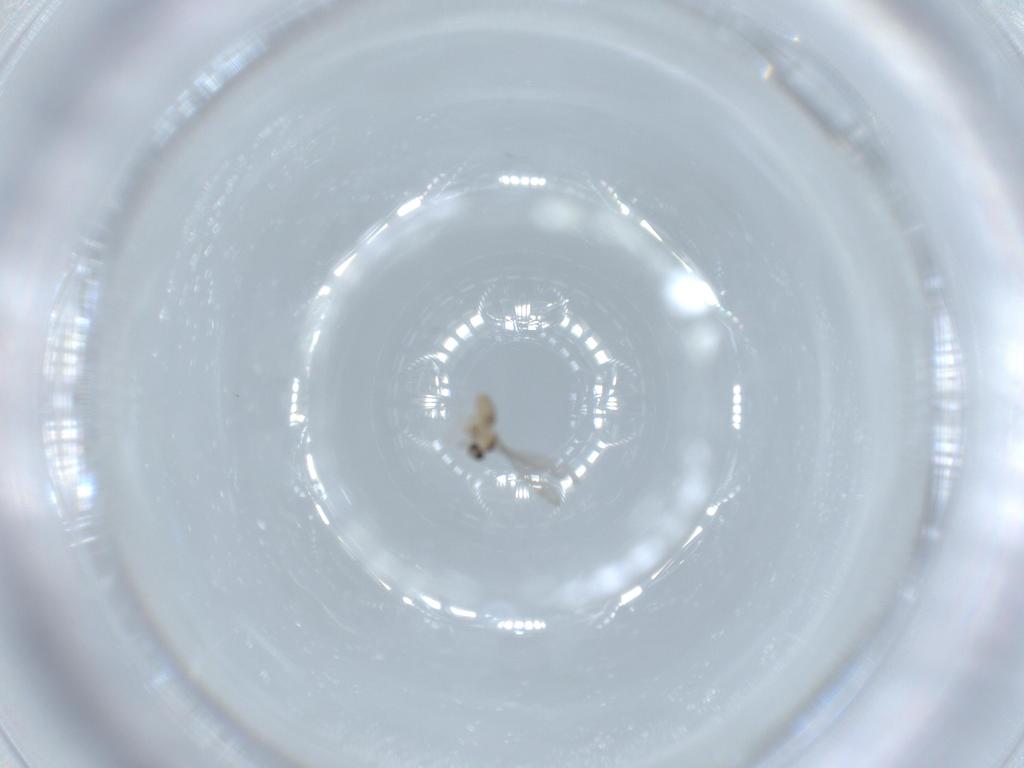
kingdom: Animalia
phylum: Arthropoda
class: Insecta
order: Diptera
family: Cecidomyiidae
